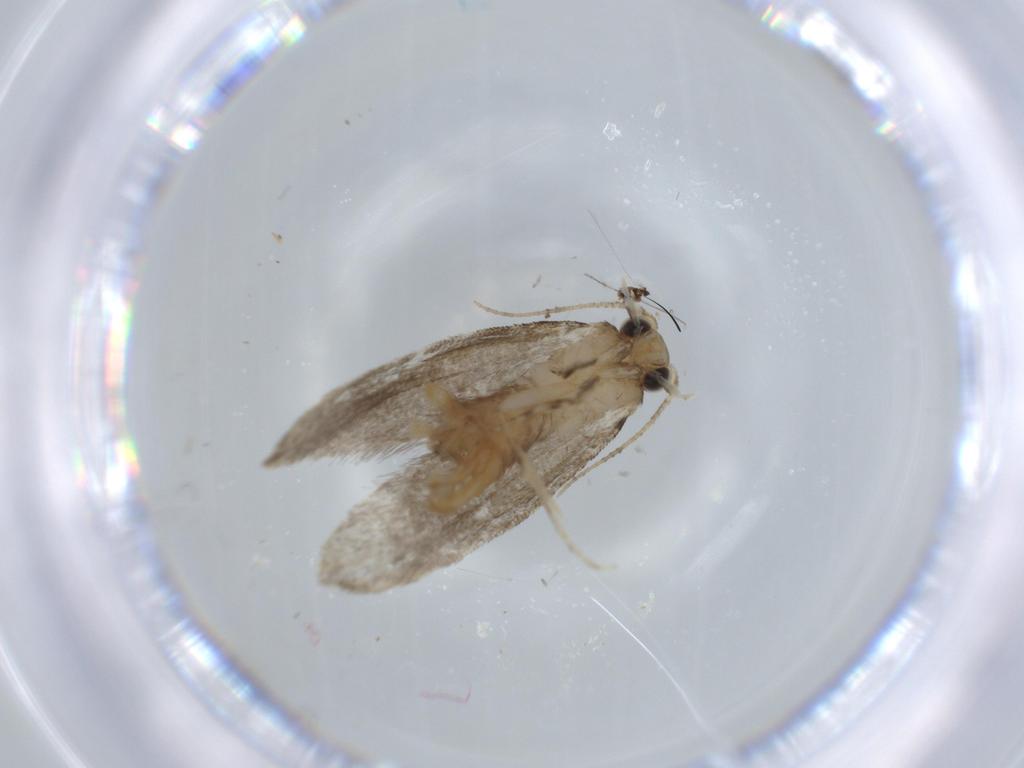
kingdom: Animalia
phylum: Arthropoda
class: Insecta
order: Lepidoptera
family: Tineidae
